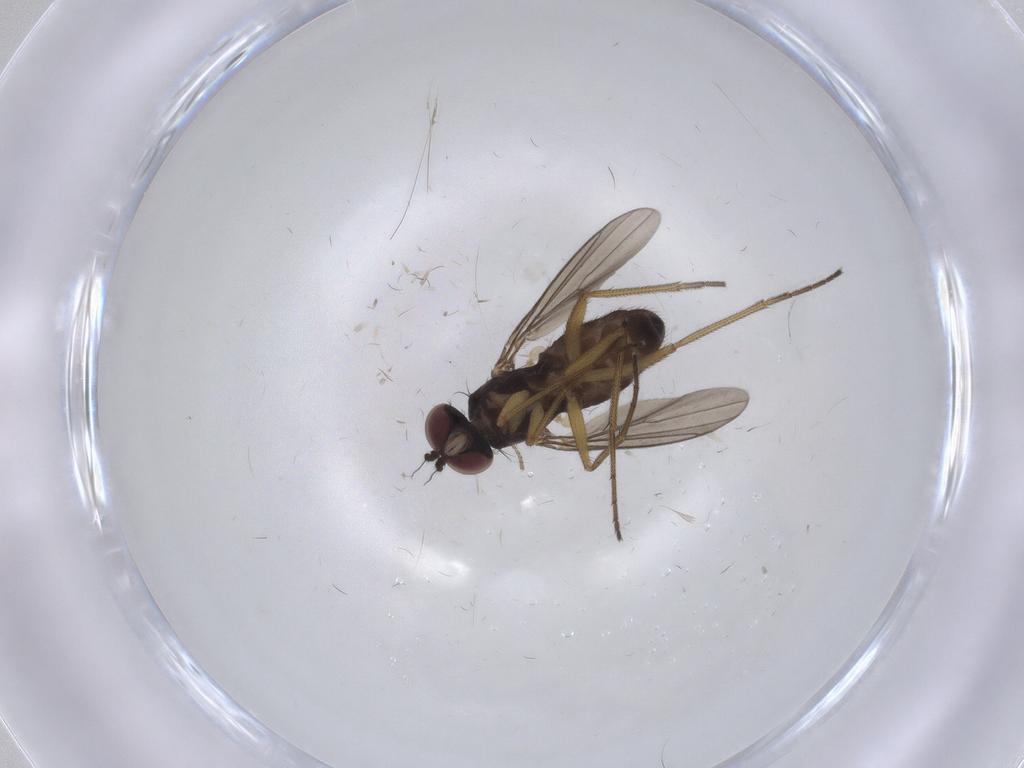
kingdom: Animalia
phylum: Arthropoda
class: Insecta
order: Diptera
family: Dolichopodidae
